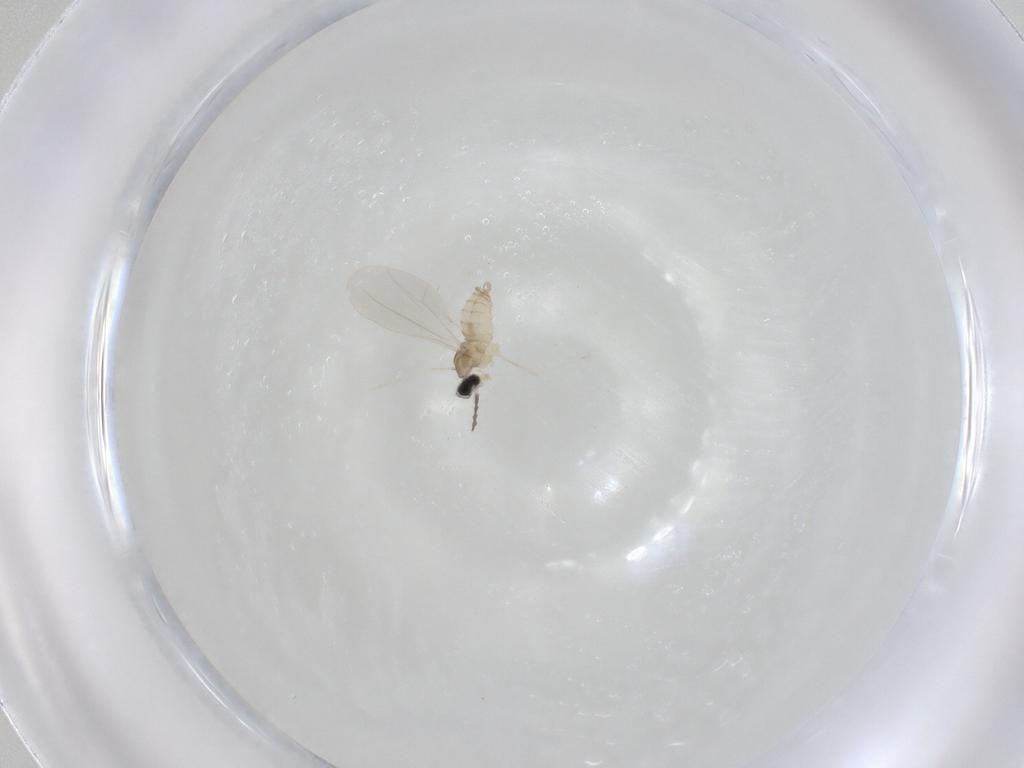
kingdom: Animalia
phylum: Arthropoda
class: Insecta
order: Diptera
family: Cecidomyiidae
